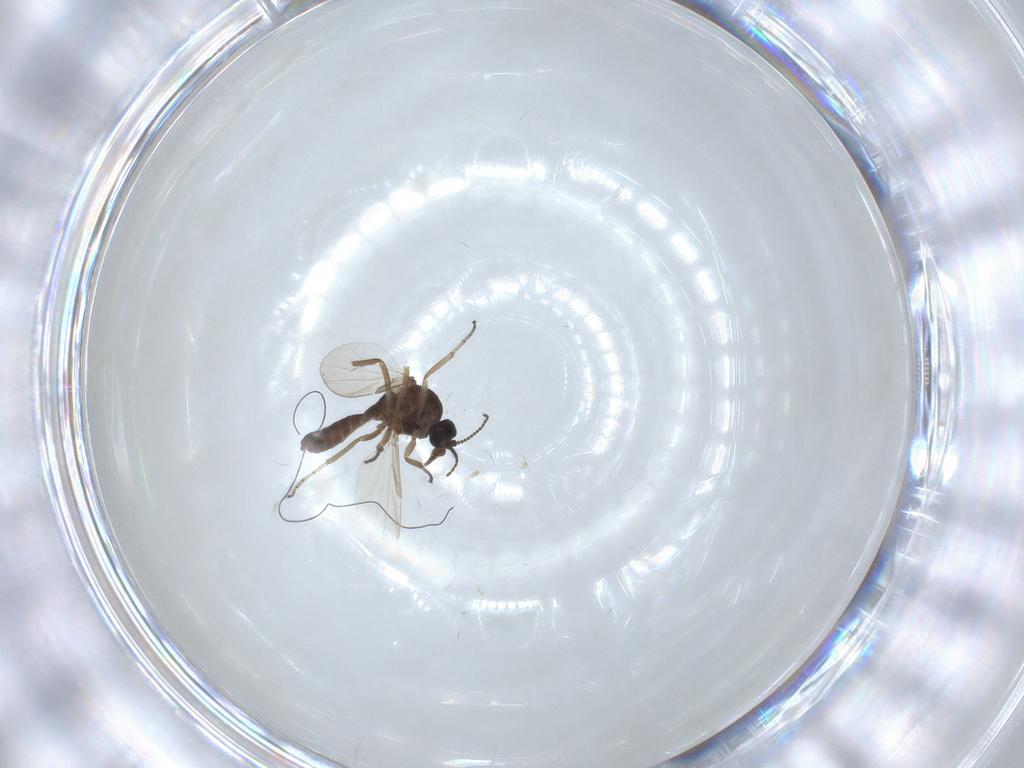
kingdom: Animalia
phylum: Arthropoda
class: Insecta
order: Diptera
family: Chironomidae
